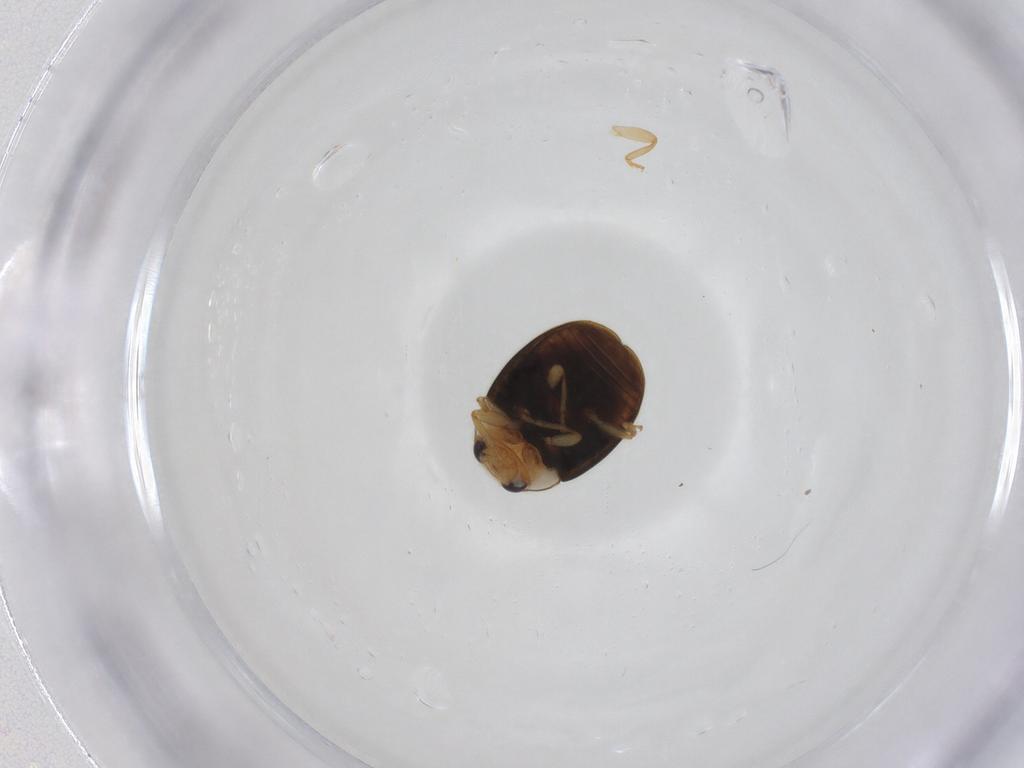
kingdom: Animalia
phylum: Arthropoda
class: Insecta
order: Coleoptera
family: Coccinellidae
